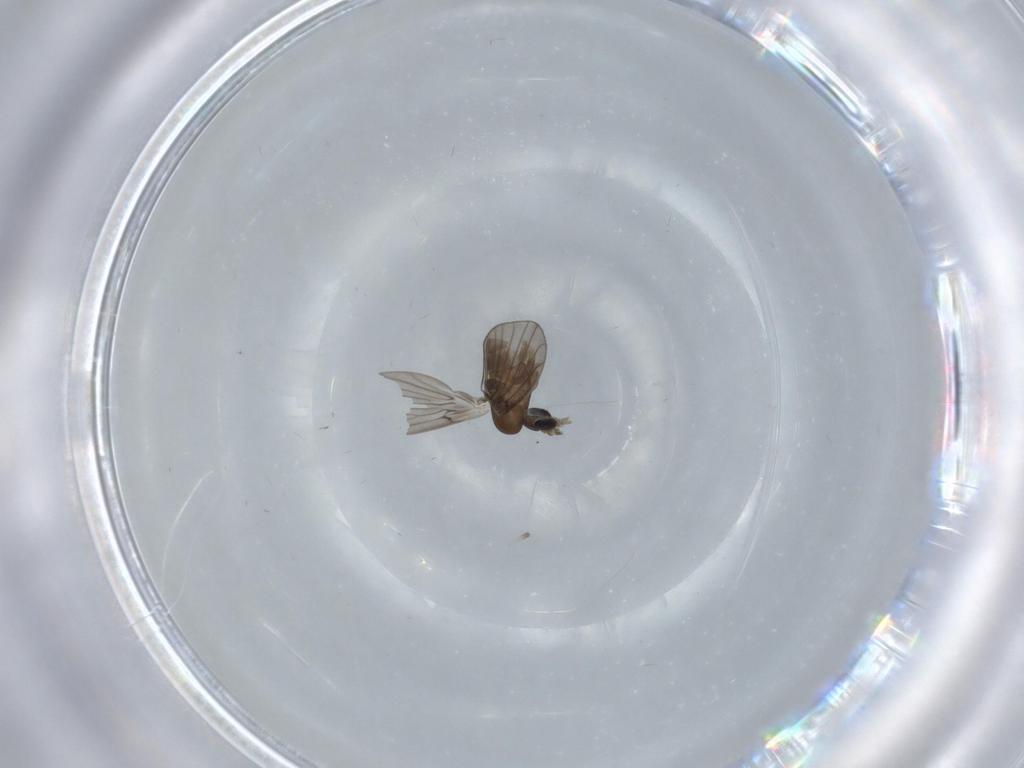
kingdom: Animalia
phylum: Arthropoda
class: Insecta
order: Diptera
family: Psychodidae
